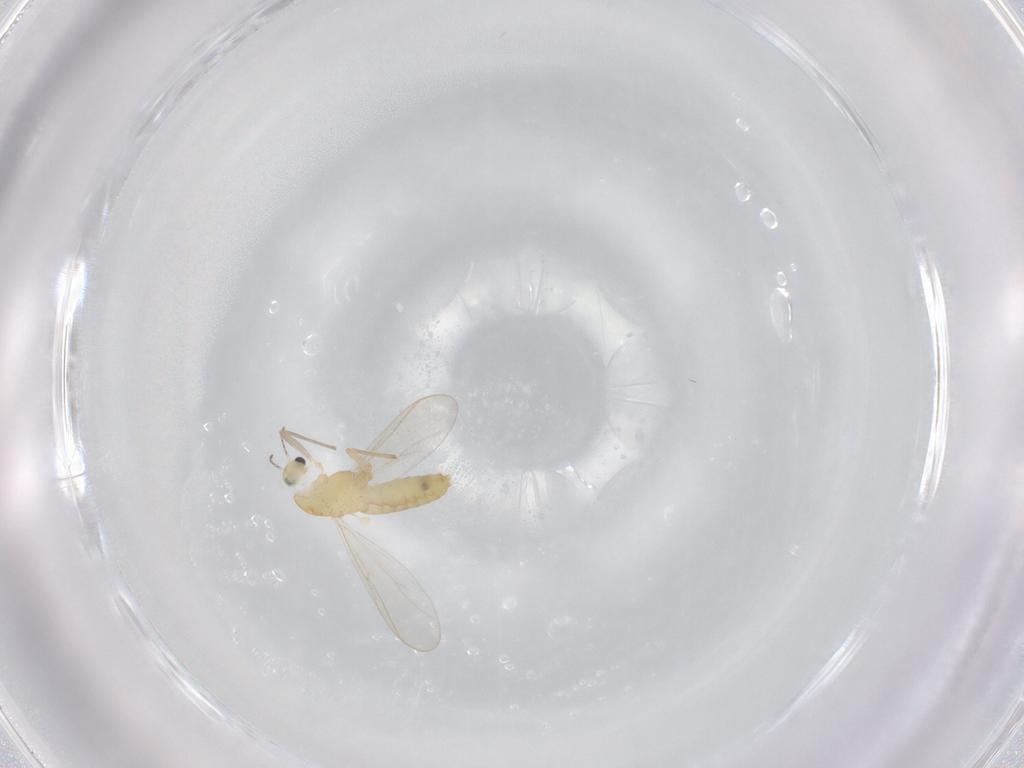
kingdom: Animalia
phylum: Arthropoda
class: Insecta
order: Diptera
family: Chironomidae
